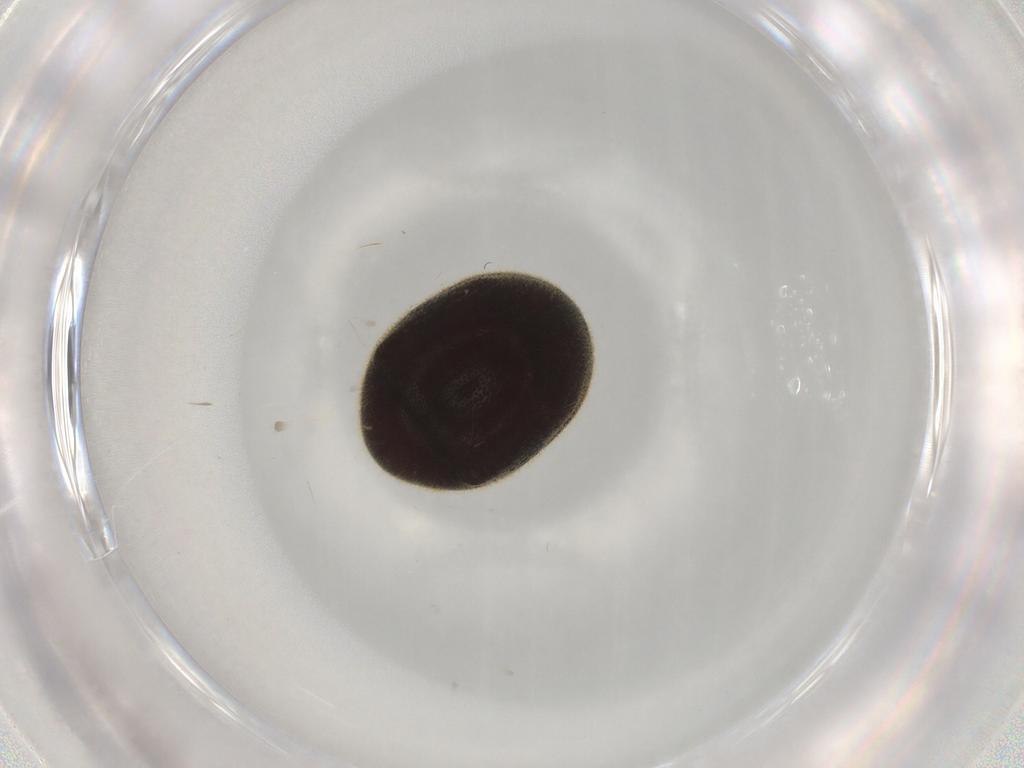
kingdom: Animalia
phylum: Arthropoda
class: Insecta
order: Coleoptera
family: Ptinidae
